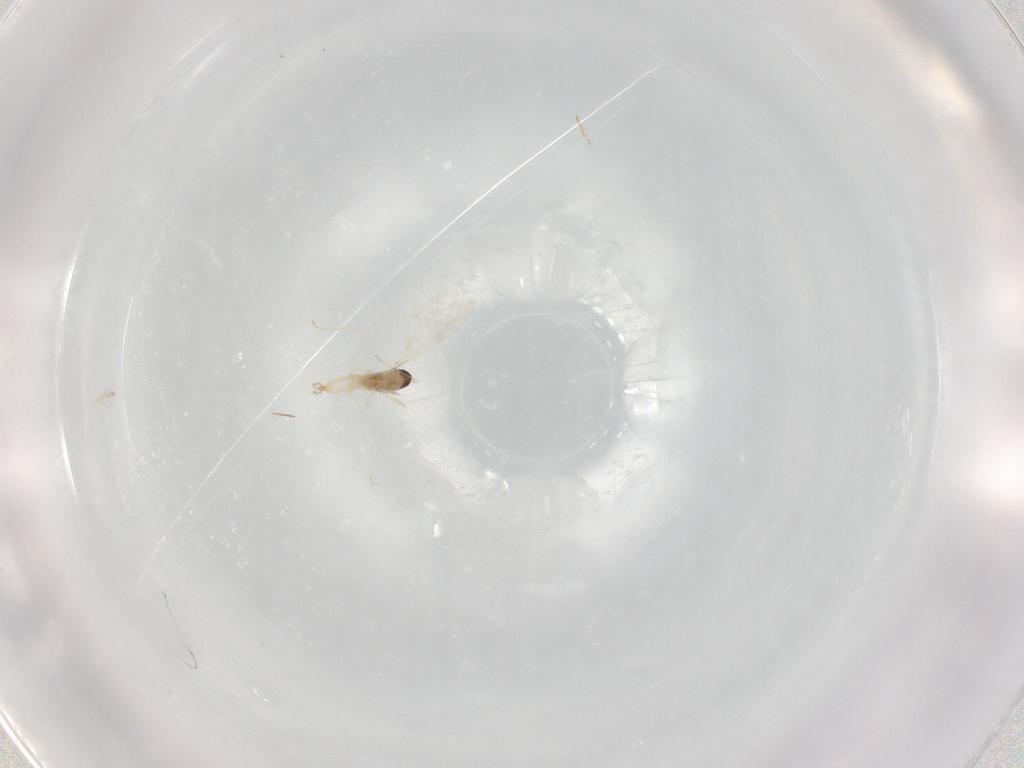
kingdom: Animalia
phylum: Arthropoda
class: Insecta
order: Diptera
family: Cecidomyiidae
